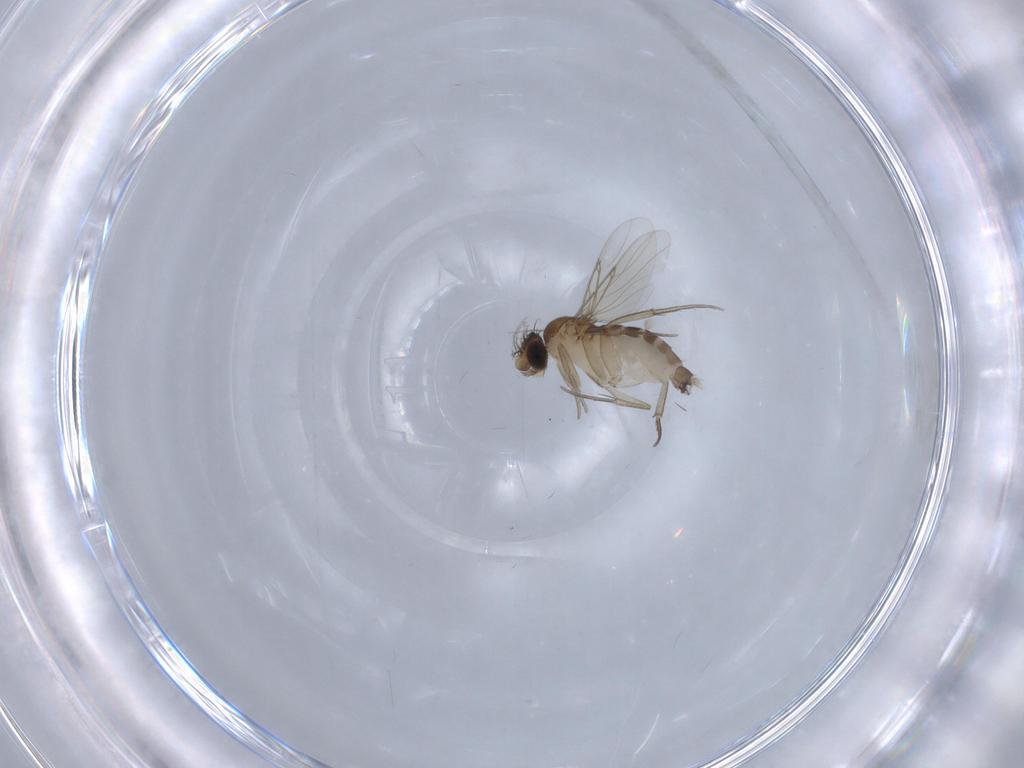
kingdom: Animalia
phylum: Arthropoda
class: Insecta
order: Diptera
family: Phoridae
